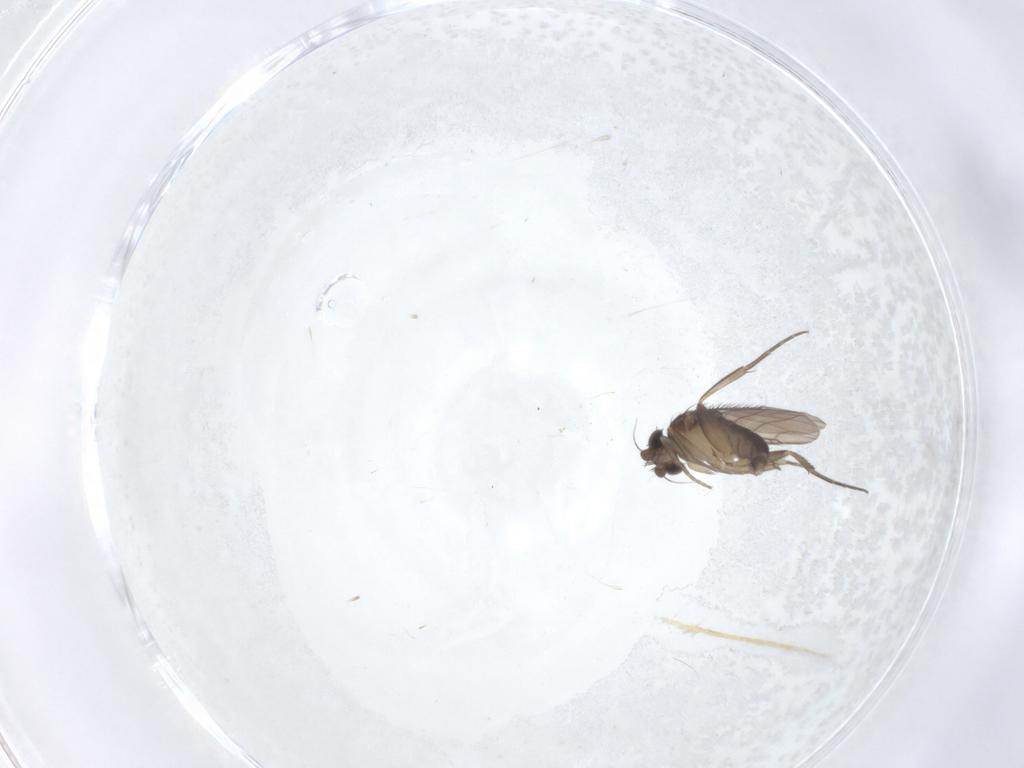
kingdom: Animalia
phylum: Arthropoda
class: Insecta
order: Diptera
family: Phoridae
